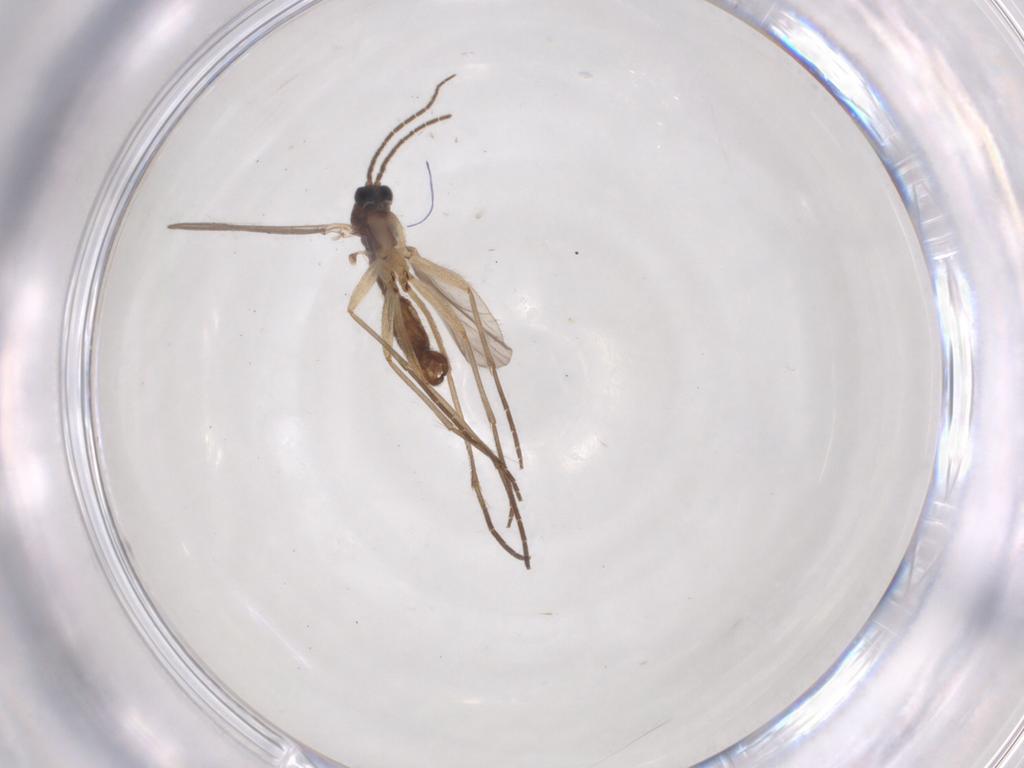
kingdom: Animalia
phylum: Arthropoda
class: Insecta
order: Diptera
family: Sciaridae
